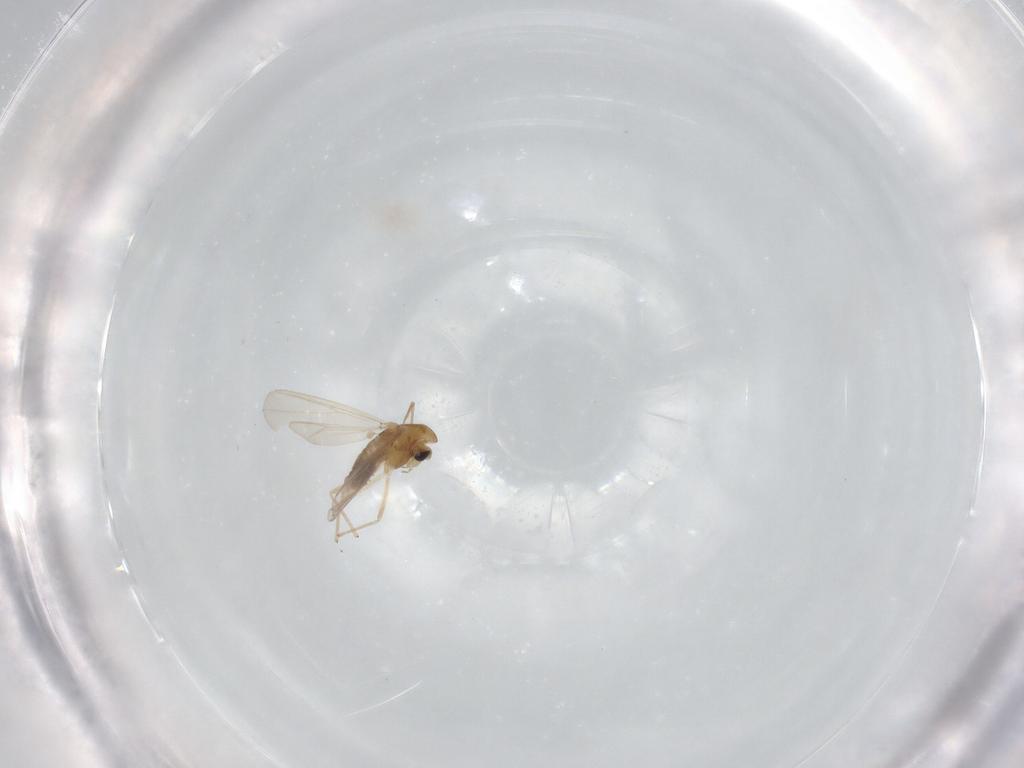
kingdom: Animalia
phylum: Arthropoda
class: Insecta
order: Diptera
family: Chironomidae
